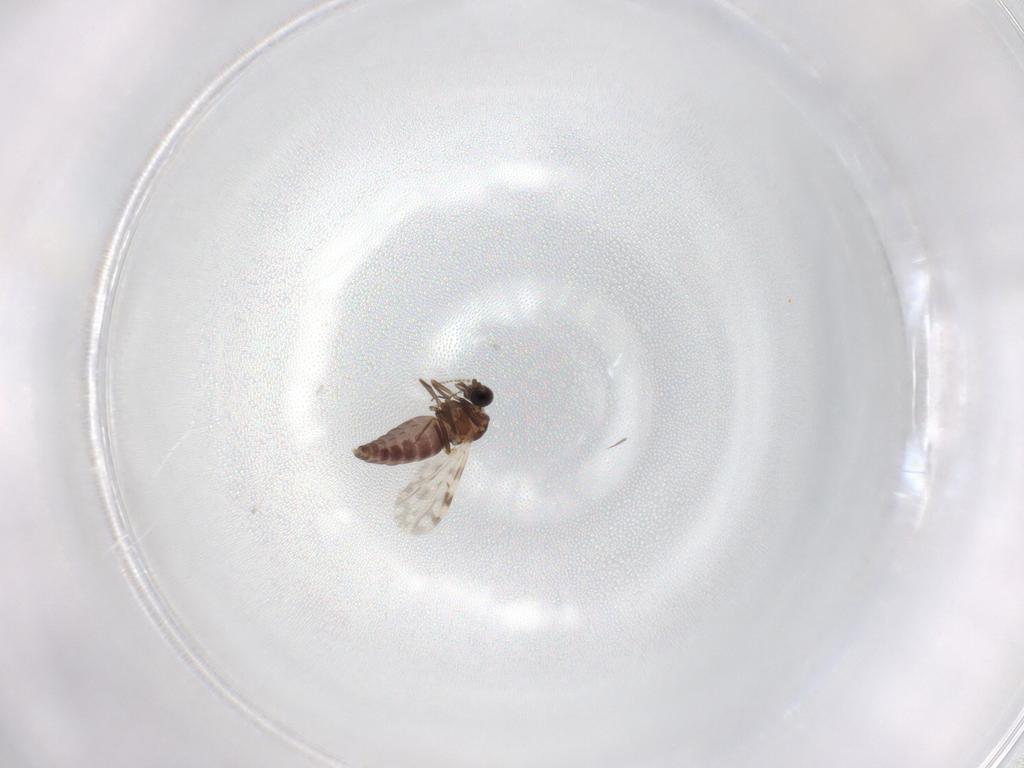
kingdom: Animalia
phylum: Arthropoda
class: Insecta
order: Diptera
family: Ceratopogonidae
